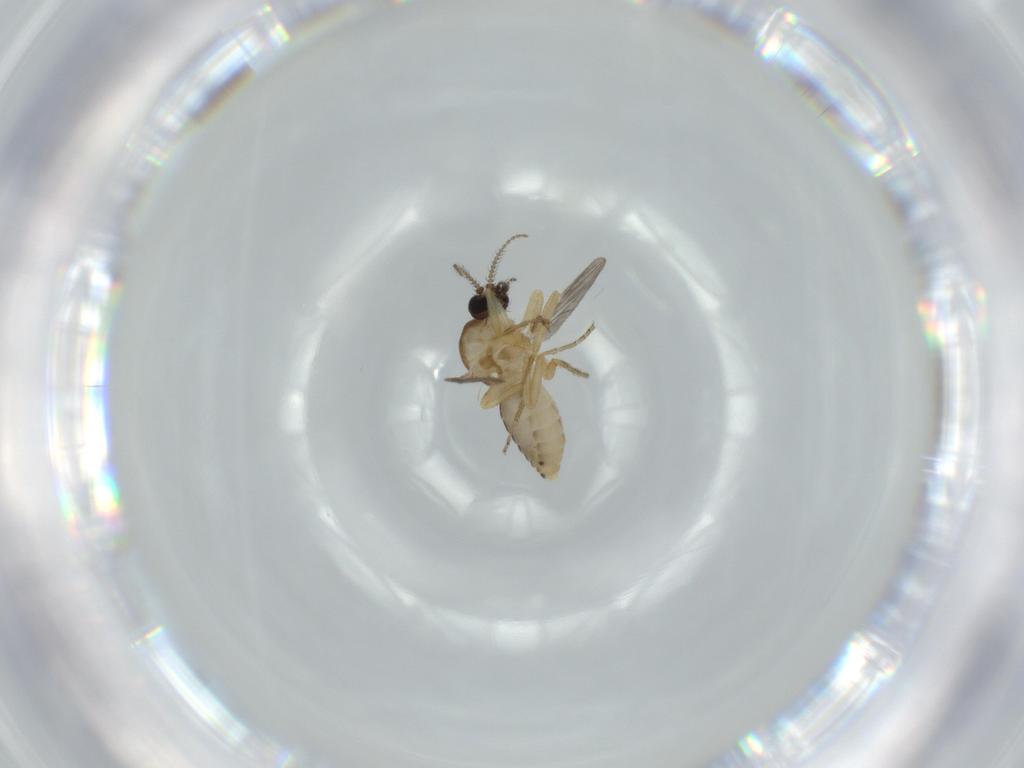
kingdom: Animalia
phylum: Arthropoda
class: Insecta
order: Diptera
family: Ceratopogonidae
